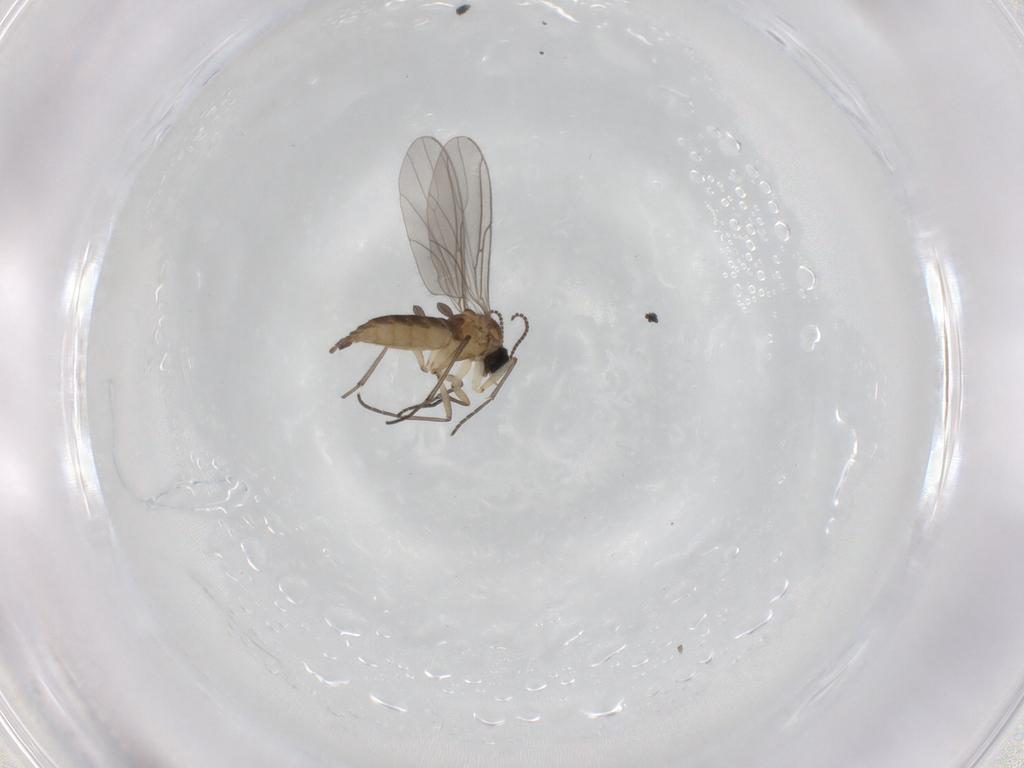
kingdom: Animalia
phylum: Arthropoda
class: Insecta
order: Diptera
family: Sciaridae
